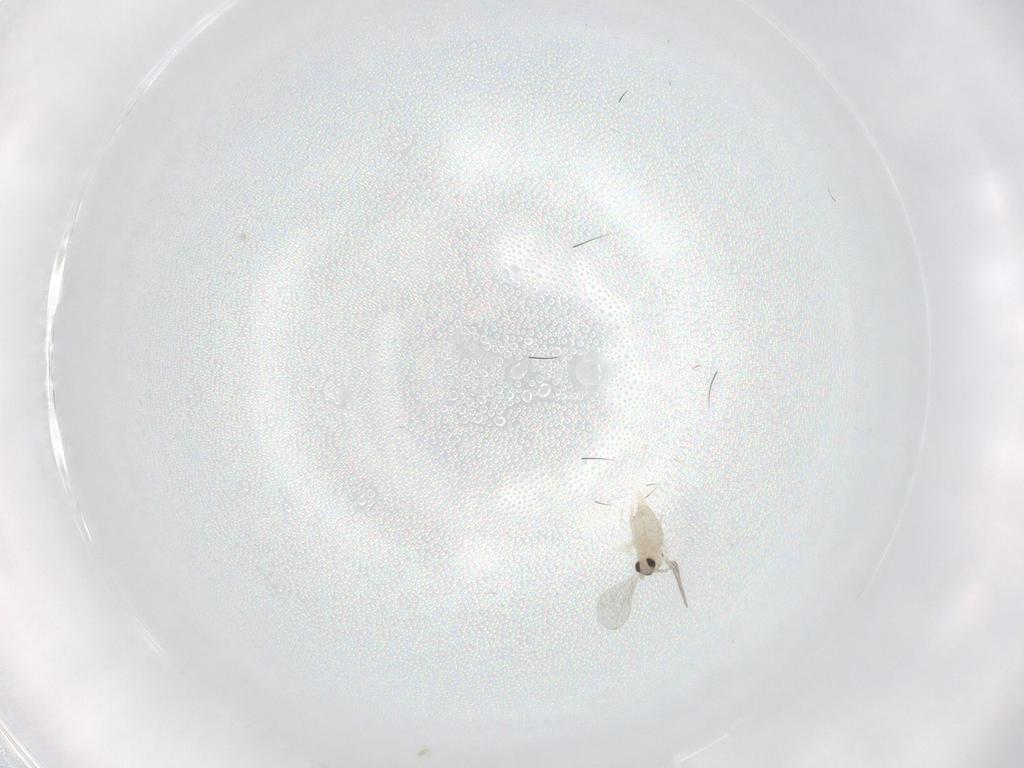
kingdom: Animalia
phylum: Arthropoda
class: Insecta
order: Diptera
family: Cecidomyiidae
